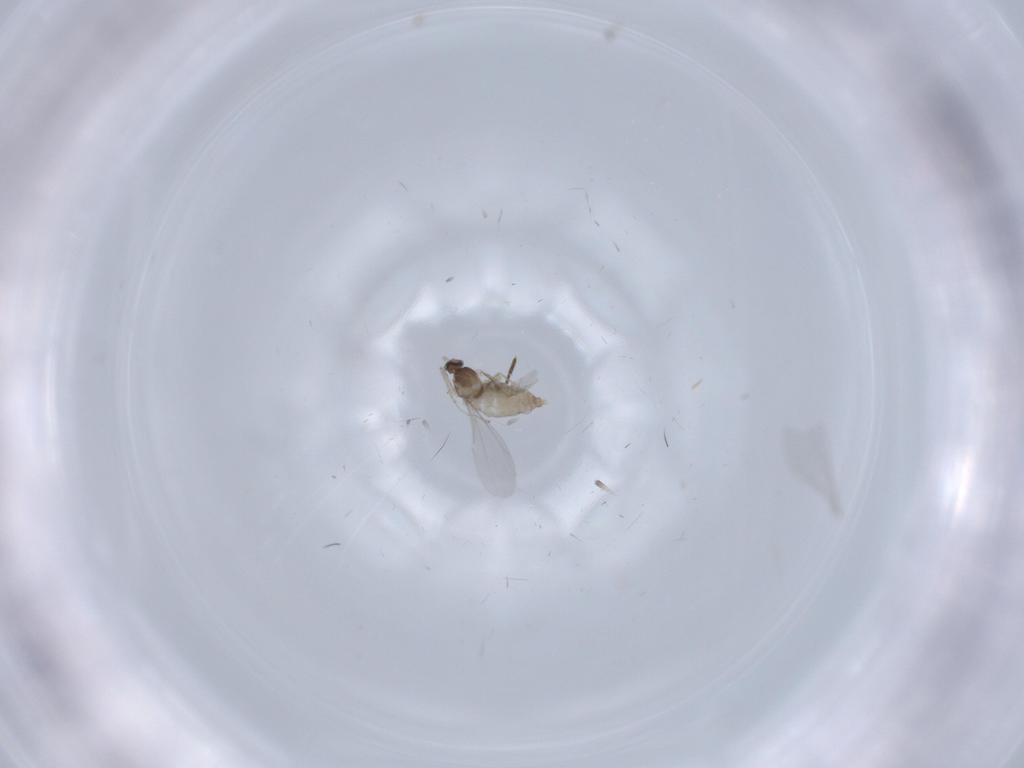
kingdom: Animalia
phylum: Arthropoda
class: Insecta
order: Diptera
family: Cecidomyiidae
